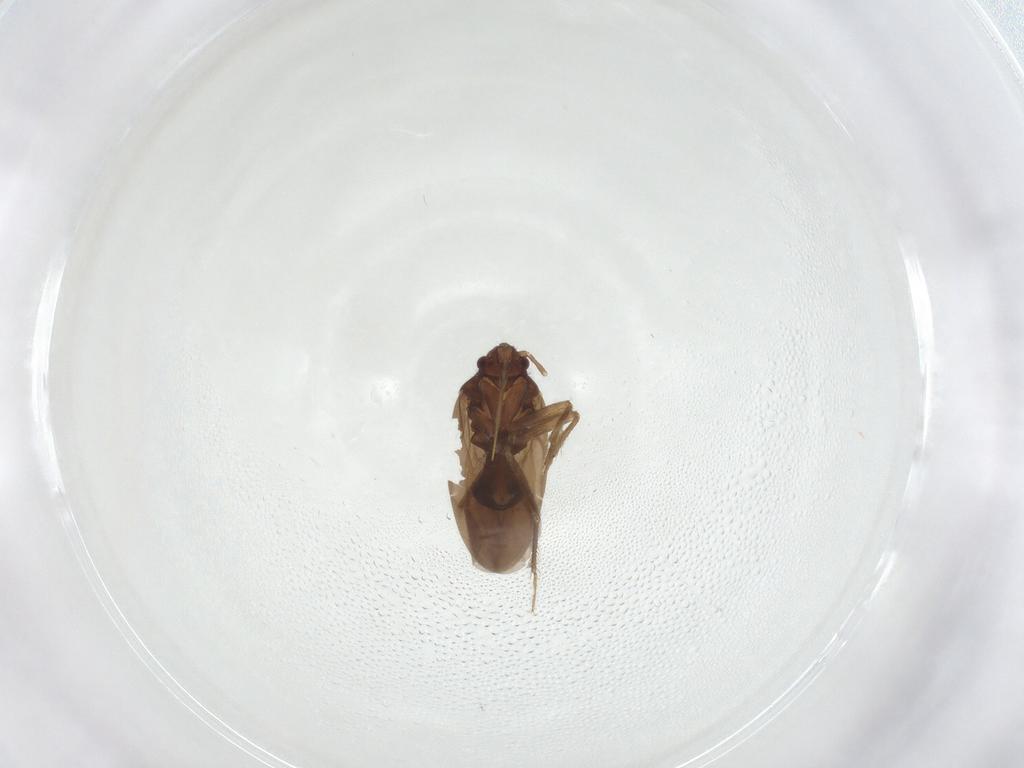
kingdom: Animalia
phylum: Arthropoda
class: Insecta
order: Hemiptera
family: Ceratocombidae
